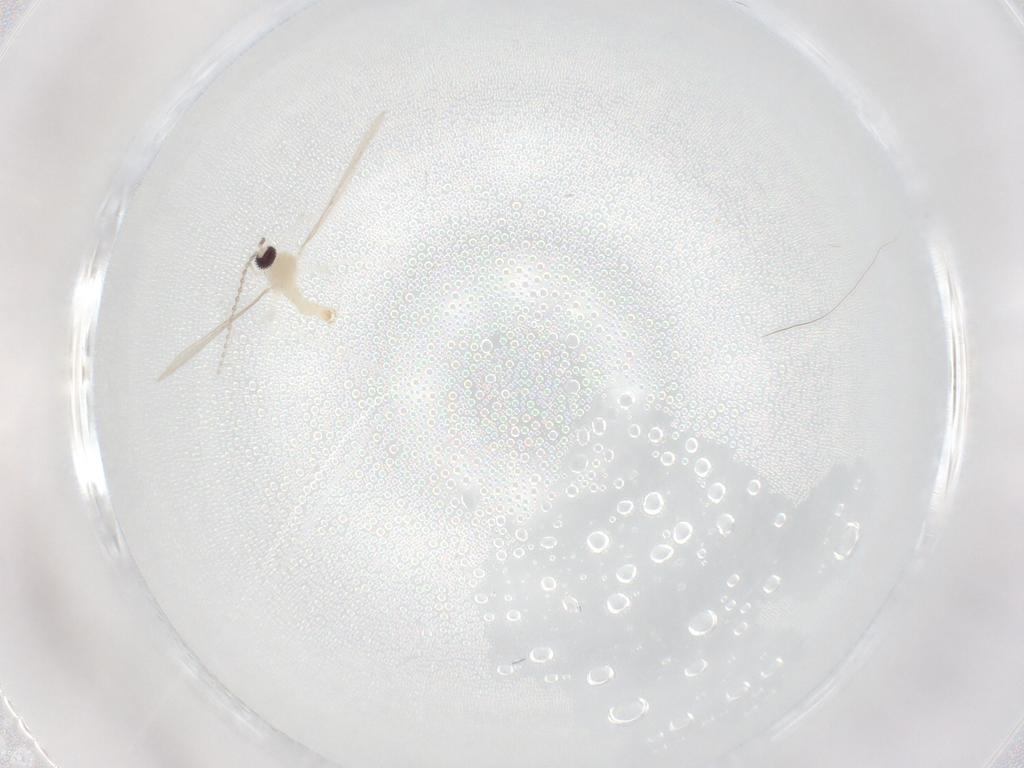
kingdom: Animalia
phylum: Arthropoda
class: Insecta
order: Diptera
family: Cecidomyiidae
